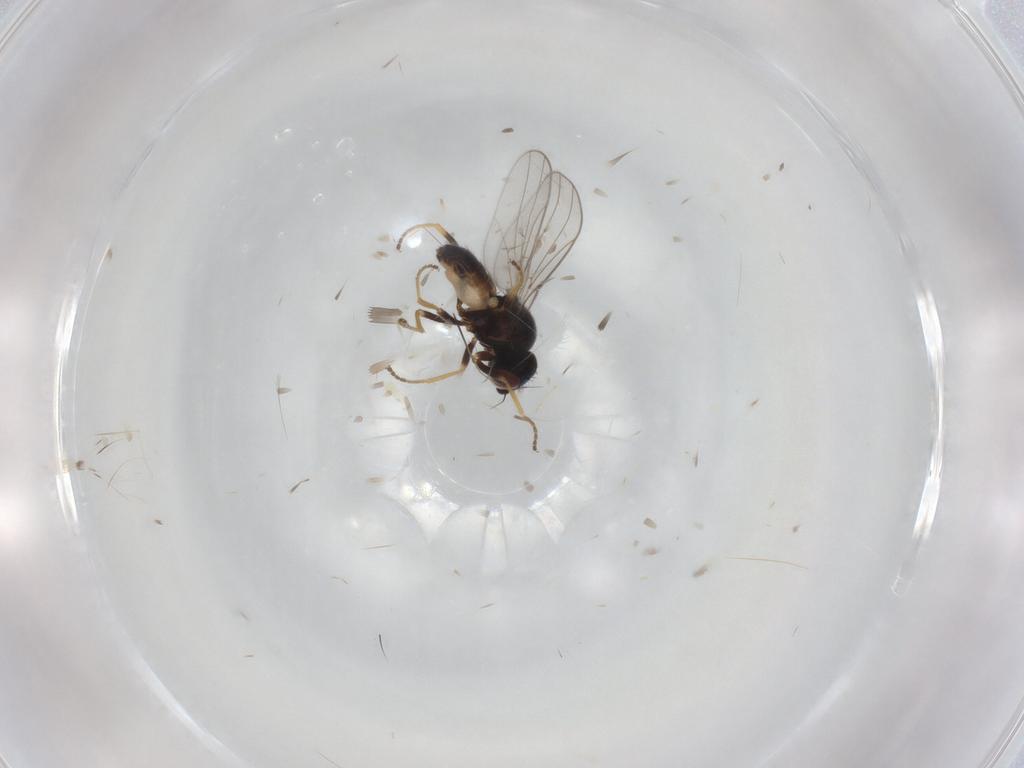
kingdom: Animalia
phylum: Arthropoda
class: Insecta
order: Diptera
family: Chloropidae
